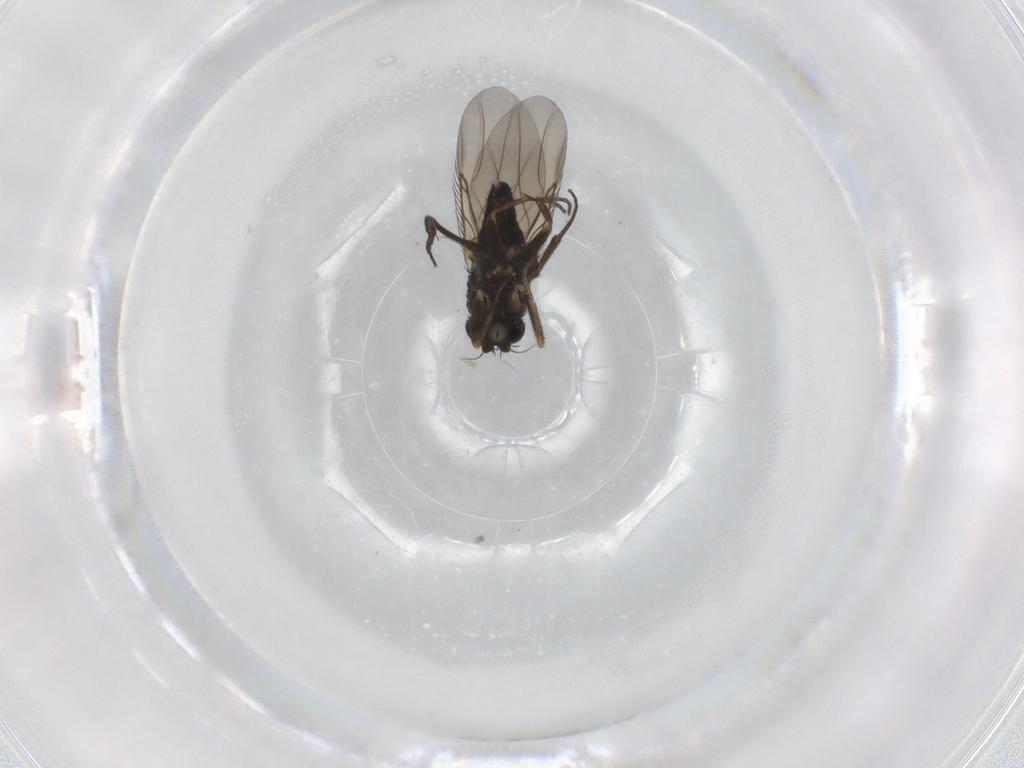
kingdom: Animalia
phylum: Arthropoda
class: Insecta
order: Diptera
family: Phoridae
